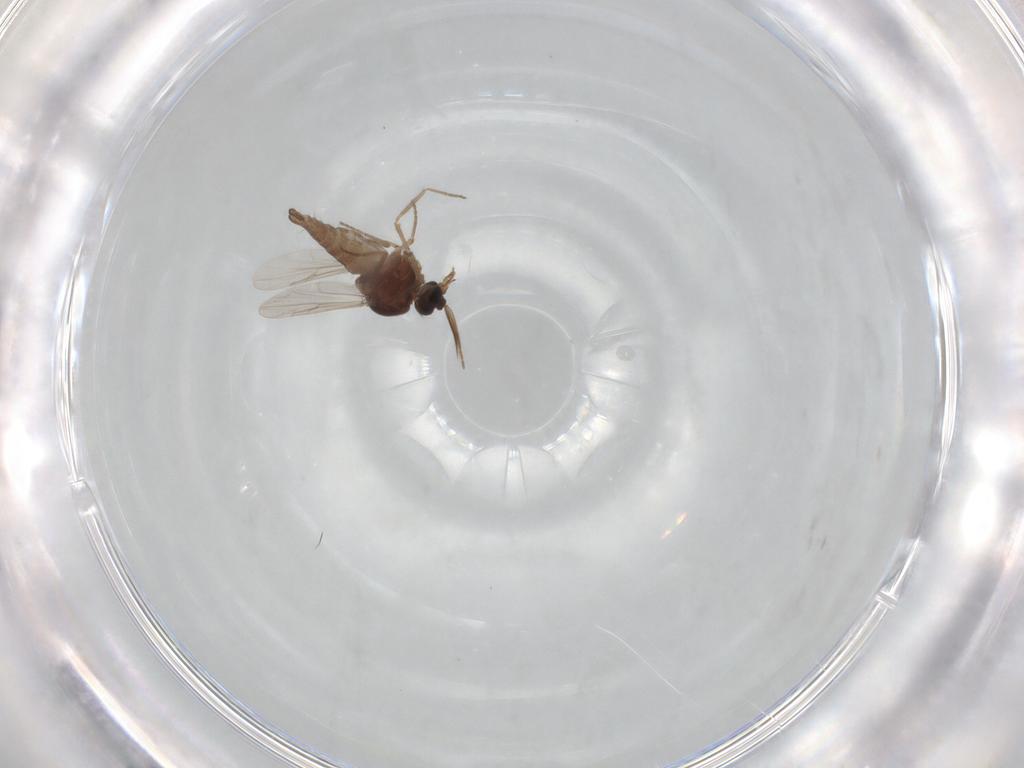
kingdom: Animalia
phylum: Arthropoda
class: Insecta
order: Diptera
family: Ceratopogonidae
